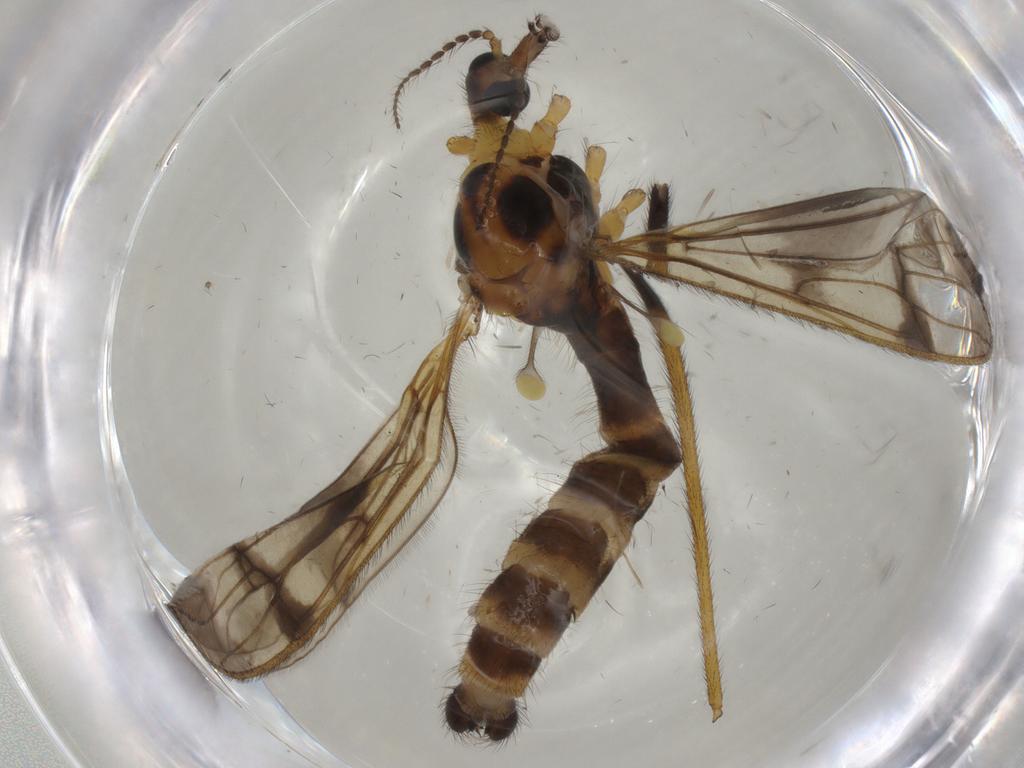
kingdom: Animalia
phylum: Arthropoda
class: Insecta
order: Diptera
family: Limoniidae
